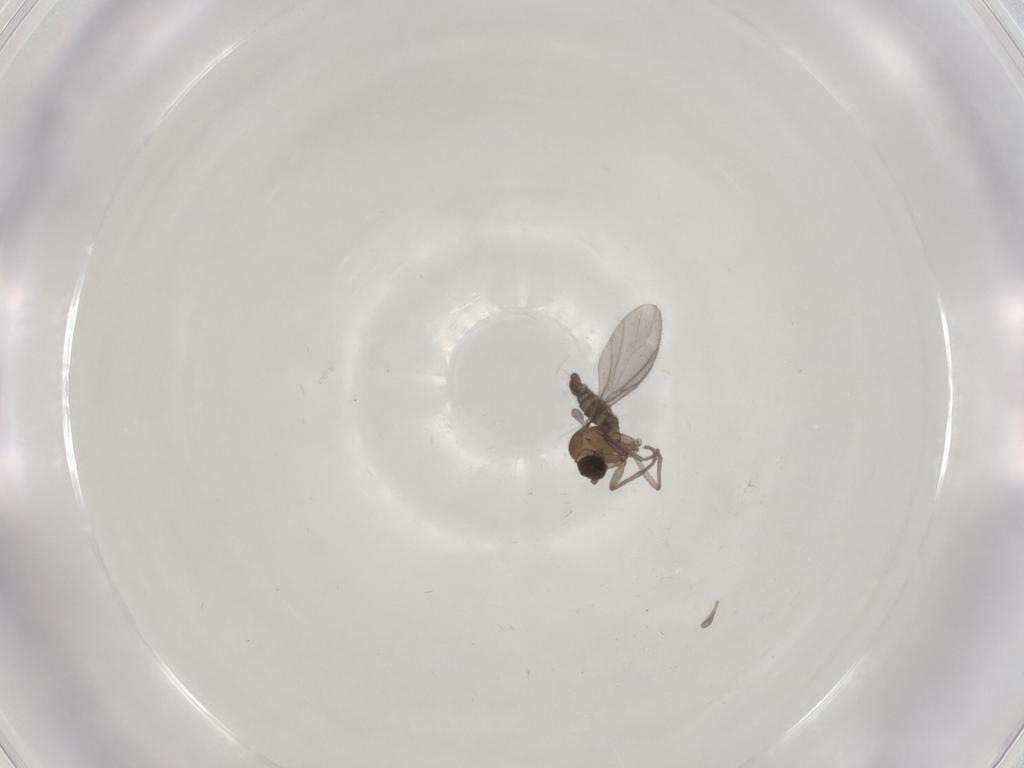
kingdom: Animalia
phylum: Arthropoda
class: Insecta
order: Diptera
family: Sciaridae
